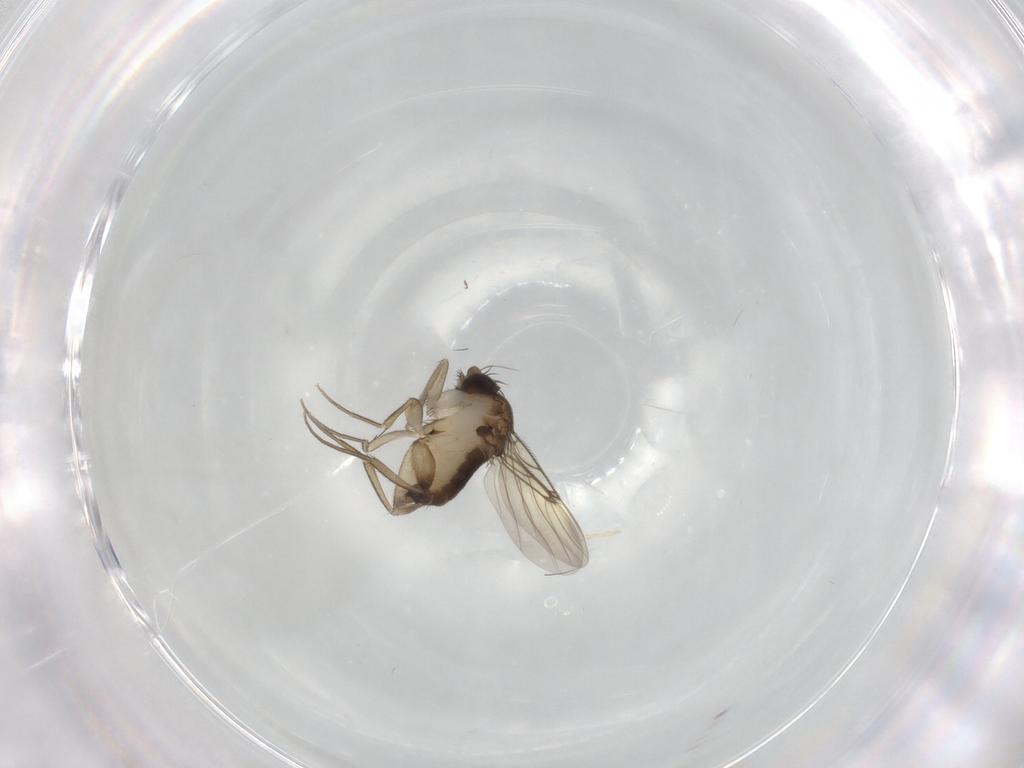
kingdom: Animalia
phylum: Arthropoda
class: Insecta
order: Diptera
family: Phoridae
